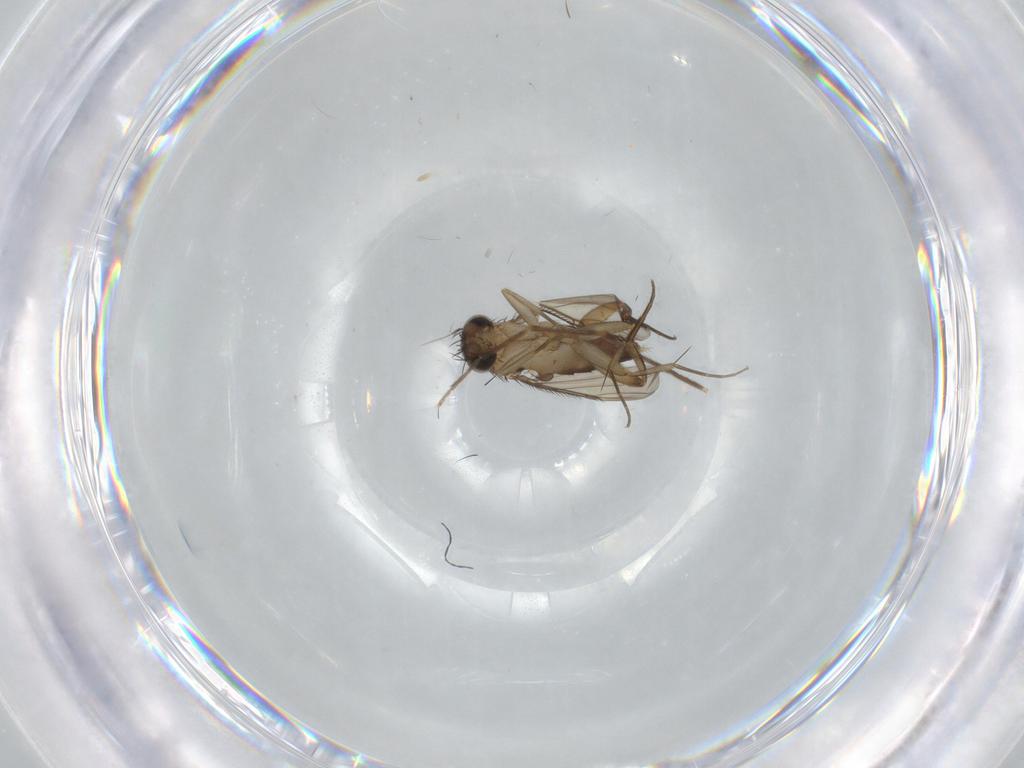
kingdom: Animalia
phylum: Arthropoda
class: Insecta
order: Diptera
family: Phoridae
